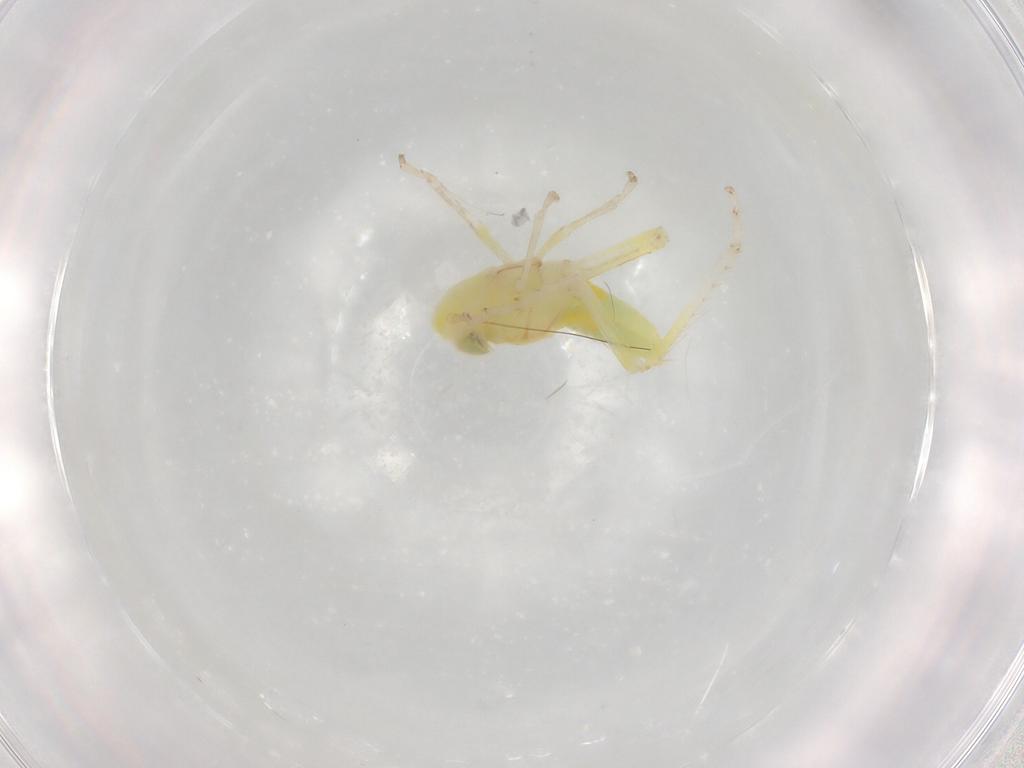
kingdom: Animalia
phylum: Arthropoda
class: Insecta
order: Hemiptera
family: Cicadellidae
